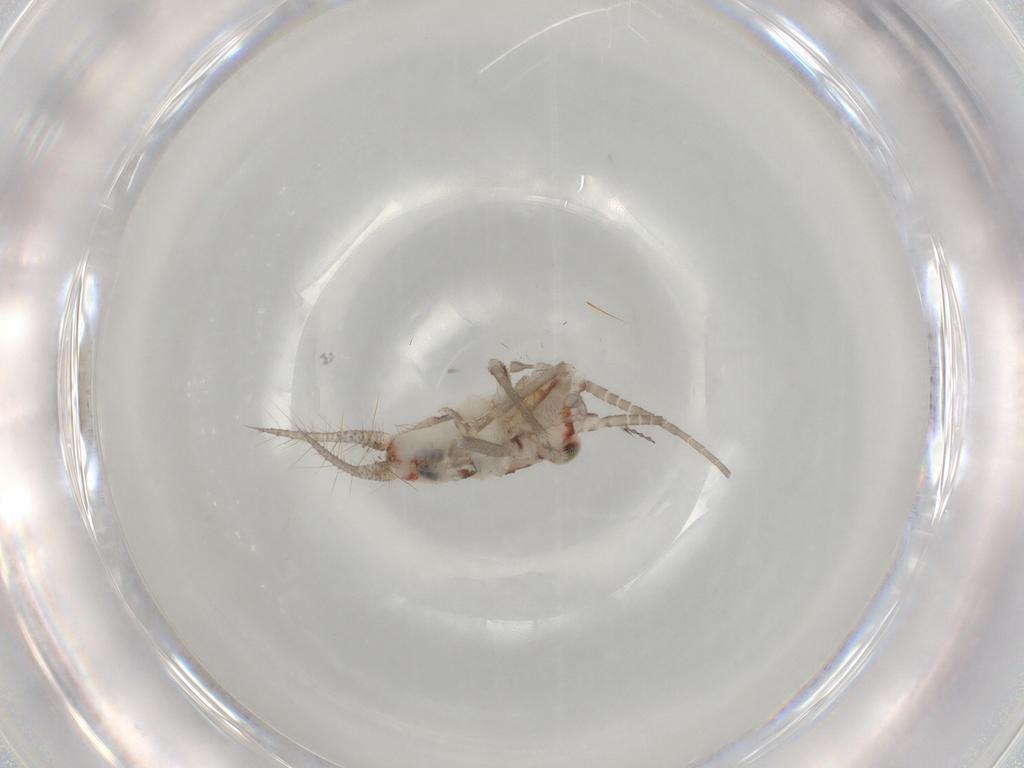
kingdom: Animalia
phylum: Arthropoda
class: Insecta
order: Orthoptera
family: Trigonidiidae
